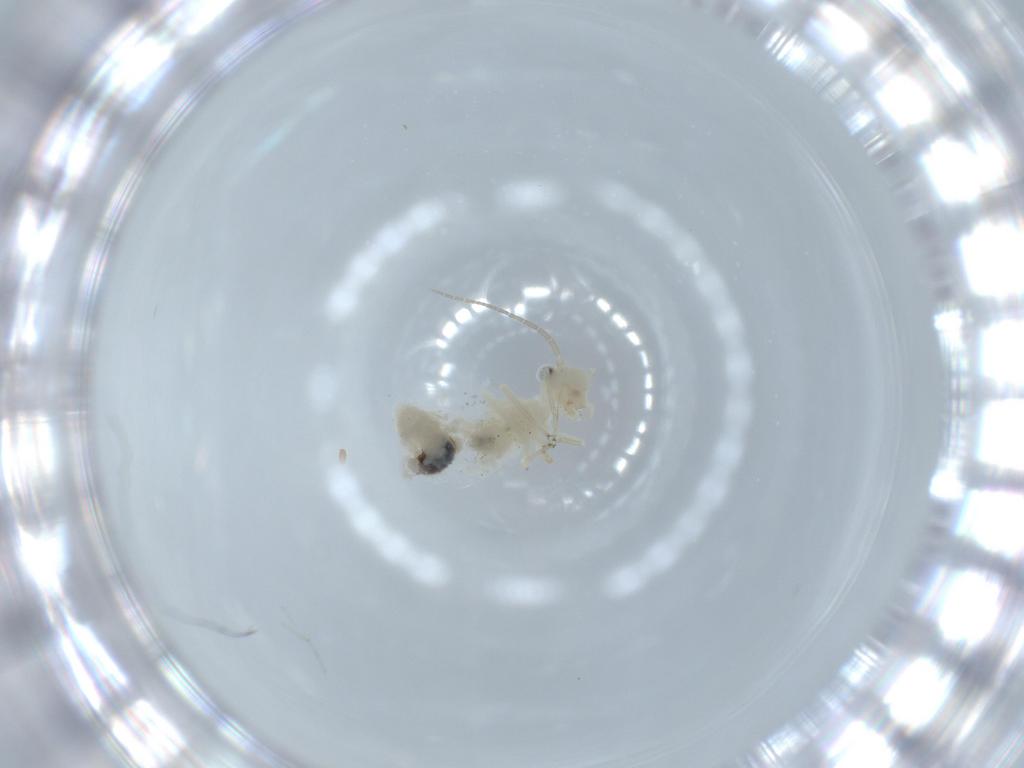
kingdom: Animalia
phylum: Arthropoda
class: Insecta
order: Psocodea
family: Caeciliusidae
